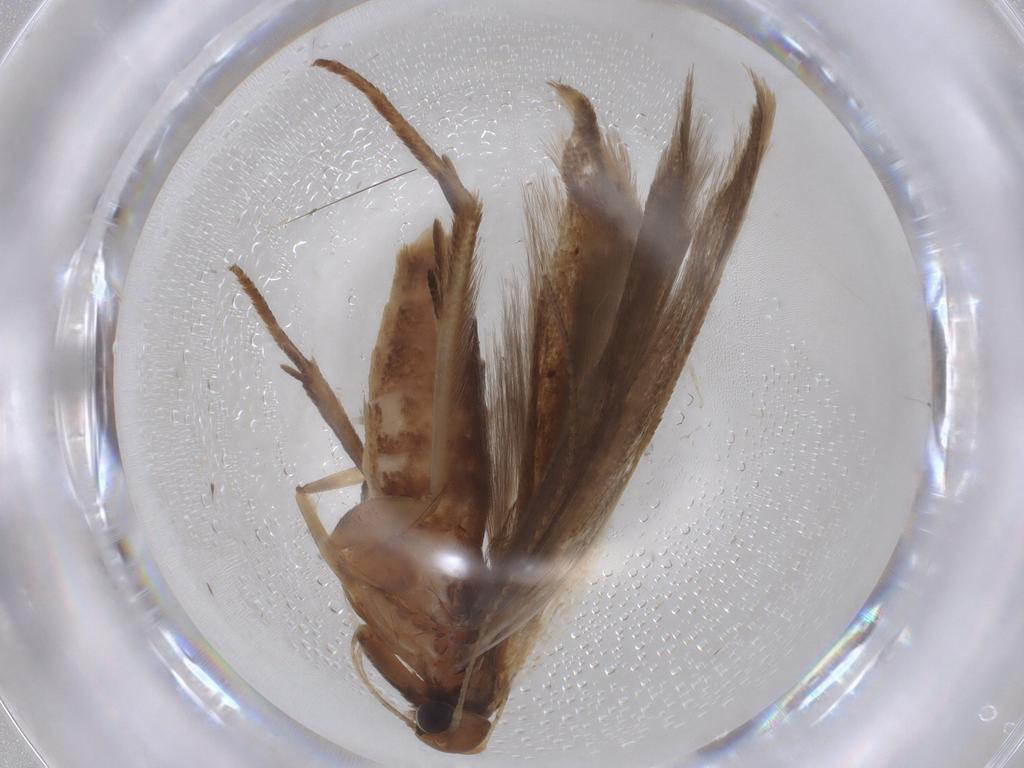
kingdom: Animalia
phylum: Arthropoda
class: Insecta
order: Lepidoptera
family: Gelechiidae
